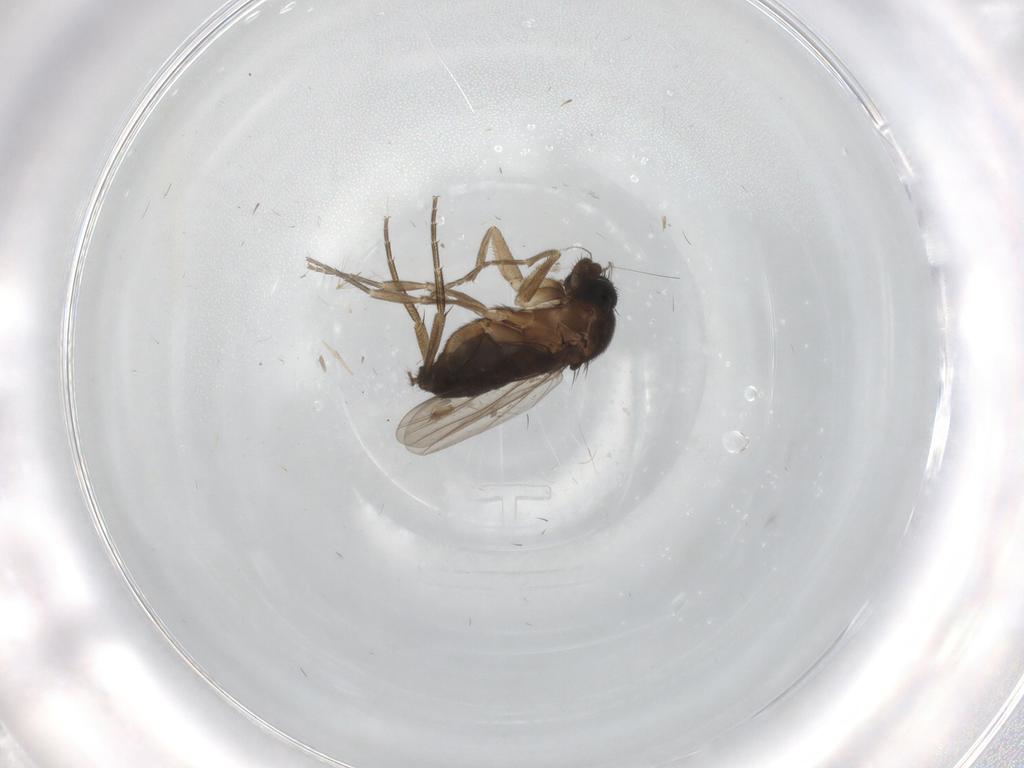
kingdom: Animalia
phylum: Arthropoda
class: Insecta
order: Diptera
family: Phoridae
